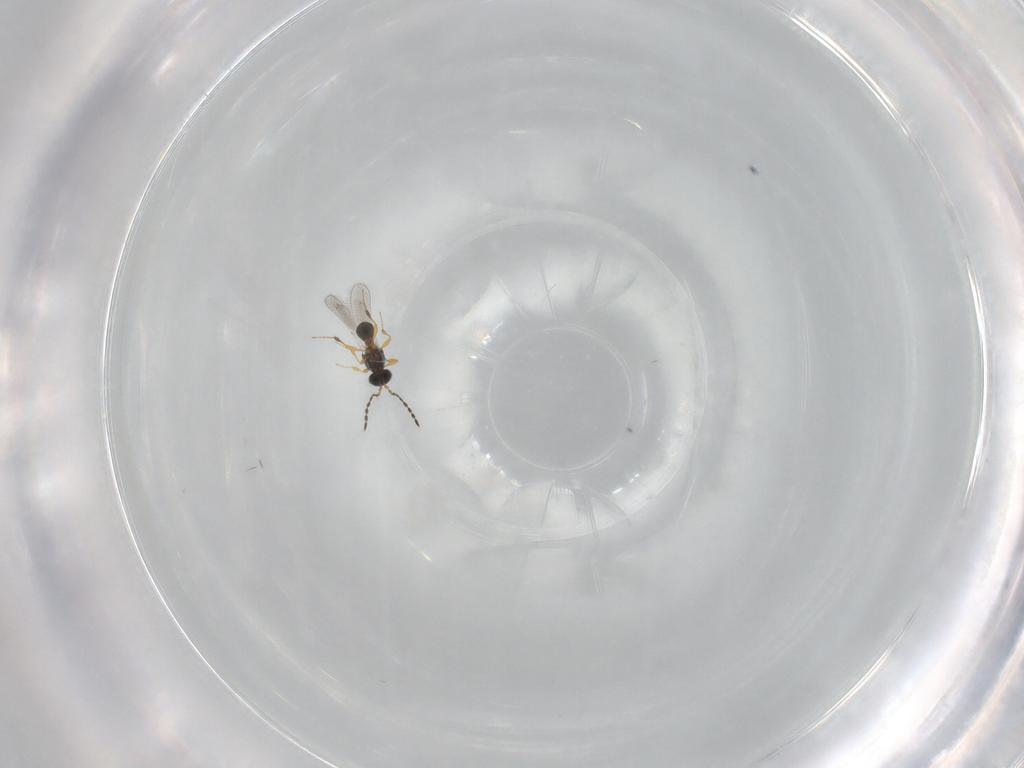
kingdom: Animalia
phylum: Arthropoda
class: Insecta
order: Hymenoptera
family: Platygastridae
